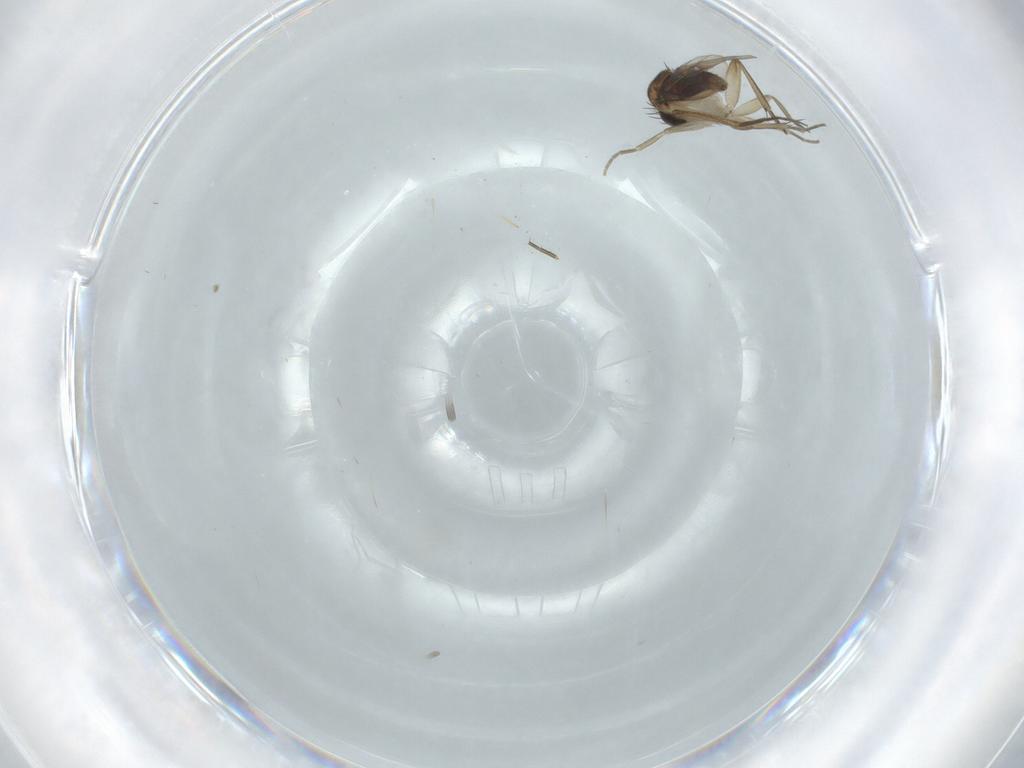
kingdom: Animalia
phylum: Arthropoda
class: Insecta
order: Diptera
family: Phoridae
